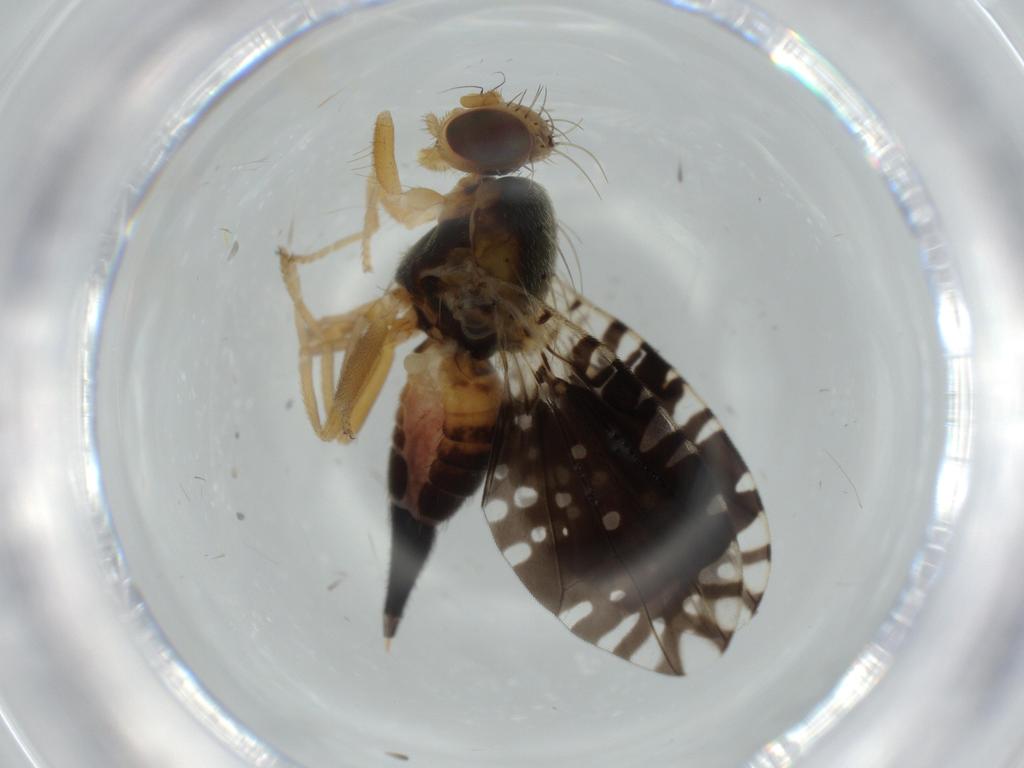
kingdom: Animalia
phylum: Arthropoda
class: Insecta
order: Diptera
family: Tephritidae
